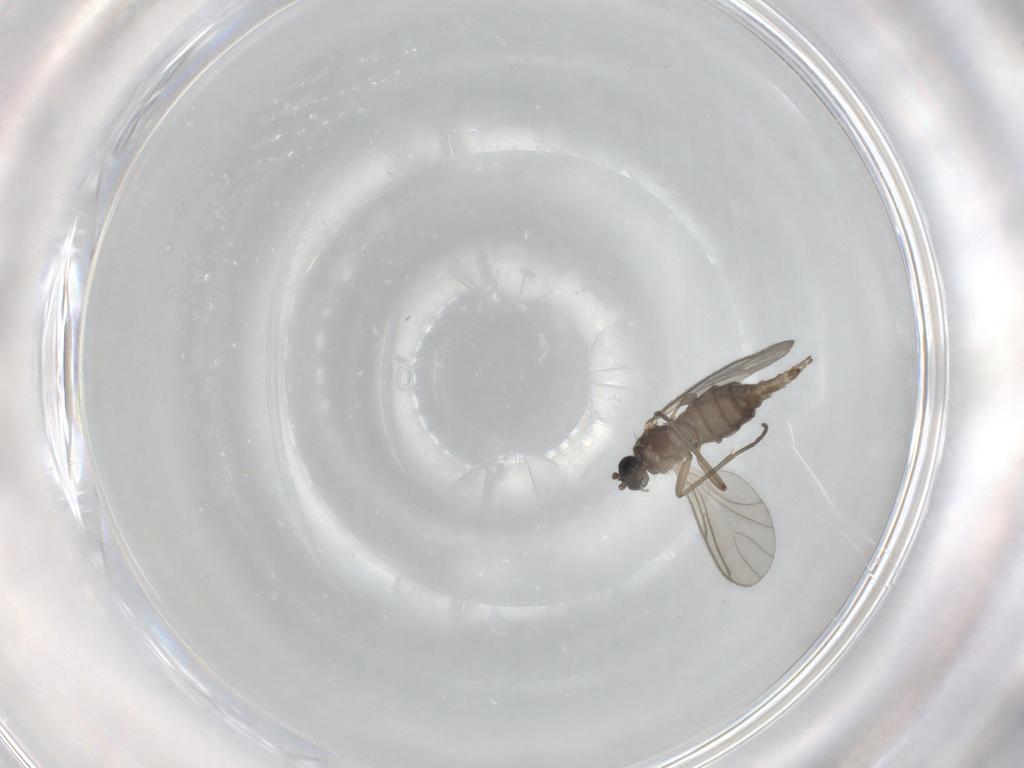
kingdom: Animalia
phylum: Arthropoda
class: Insecta
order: Diptera
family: Sciaridae
